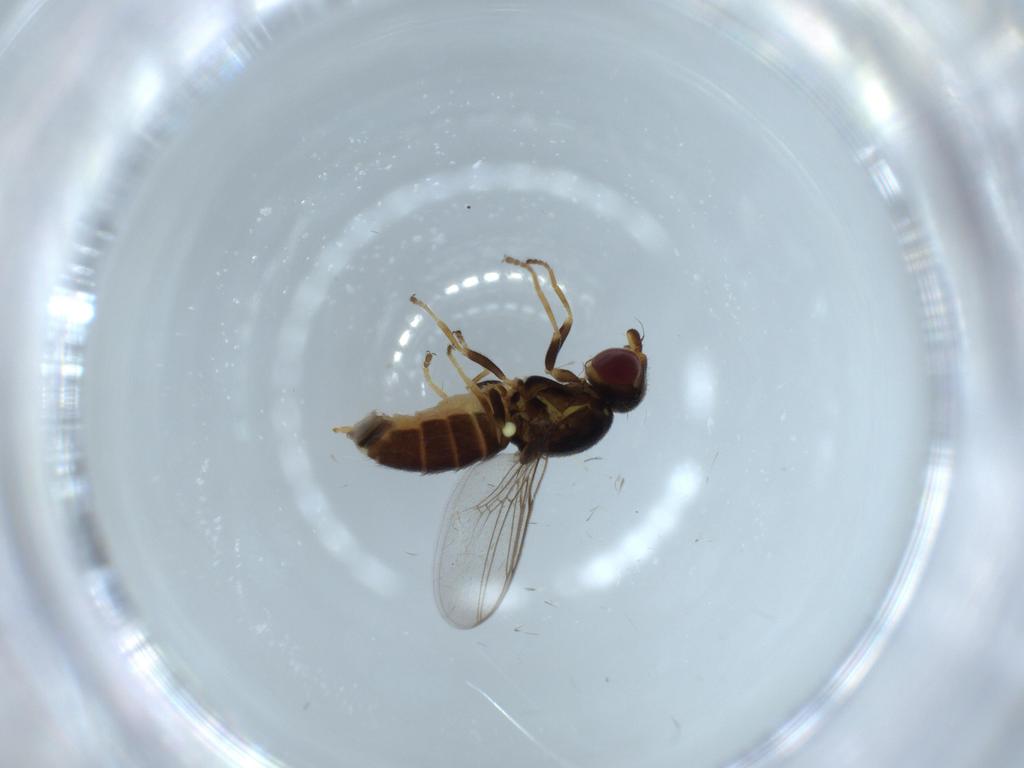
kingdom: Animalia
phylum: Arthropoda
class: Insecta
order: Diptera
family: Sciaridae
